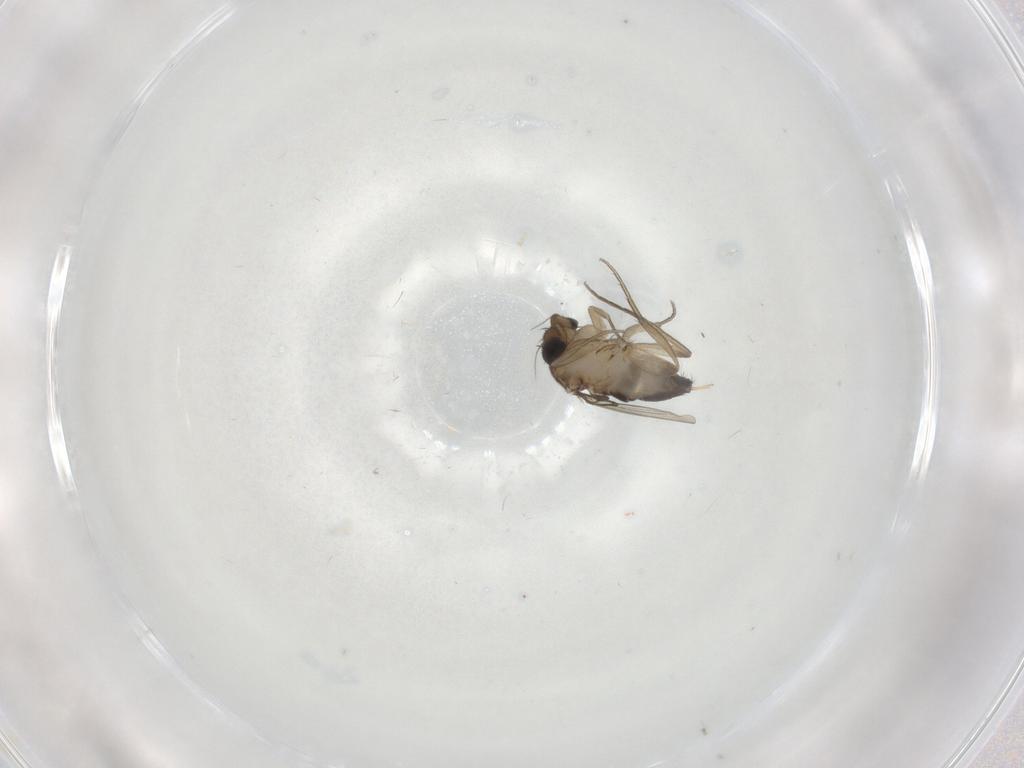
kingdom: Animalia
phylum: Arthropoda
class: Insecta
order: Diptera
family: Phoridae
